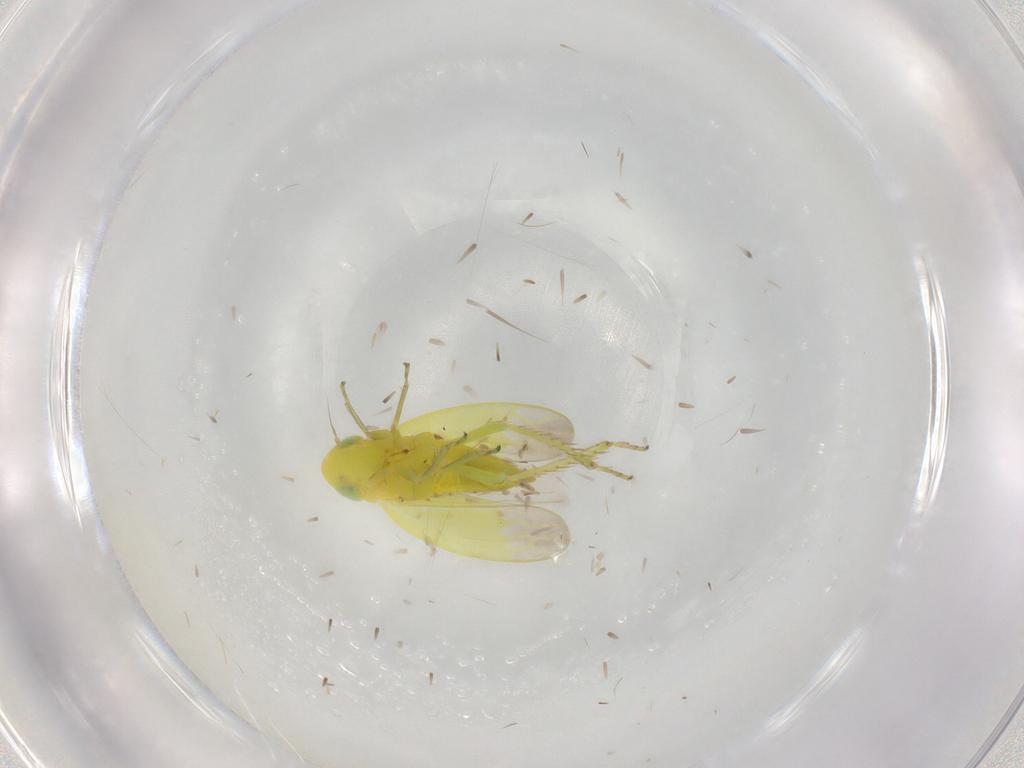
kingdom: Animalia
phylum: Arthropoda
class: Insecta
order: Hemiptera
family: Cicadellidae
